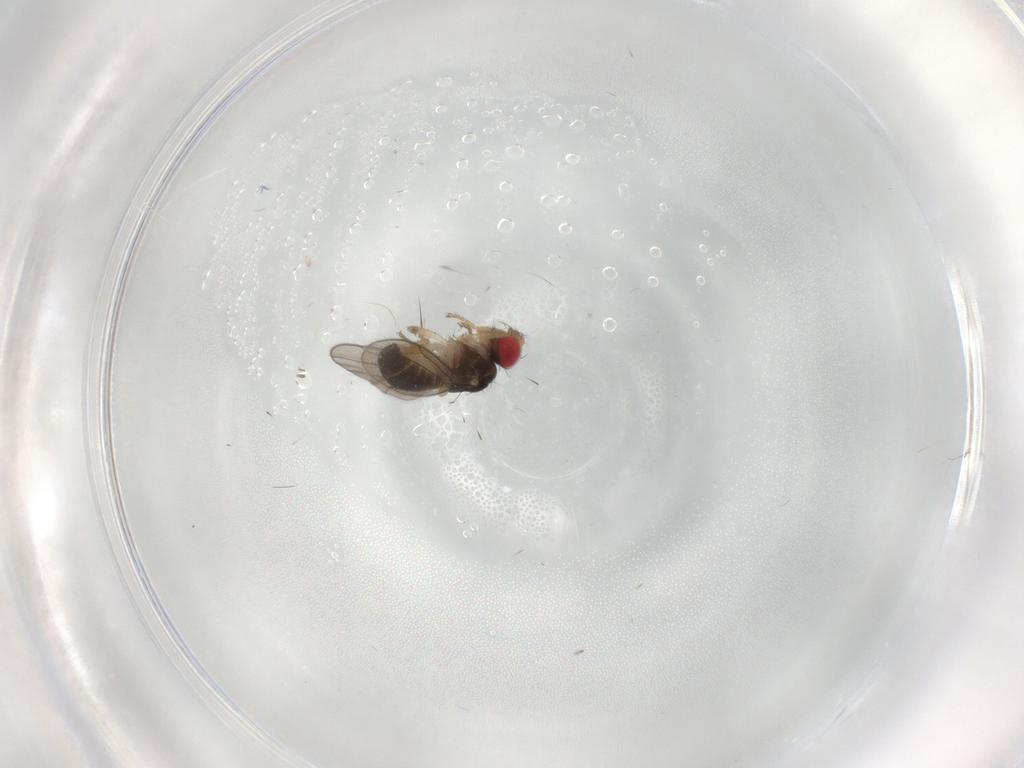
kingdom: Animalia
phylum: Arthropoda
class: Insecta
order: Diptera
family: Drosophilidae
